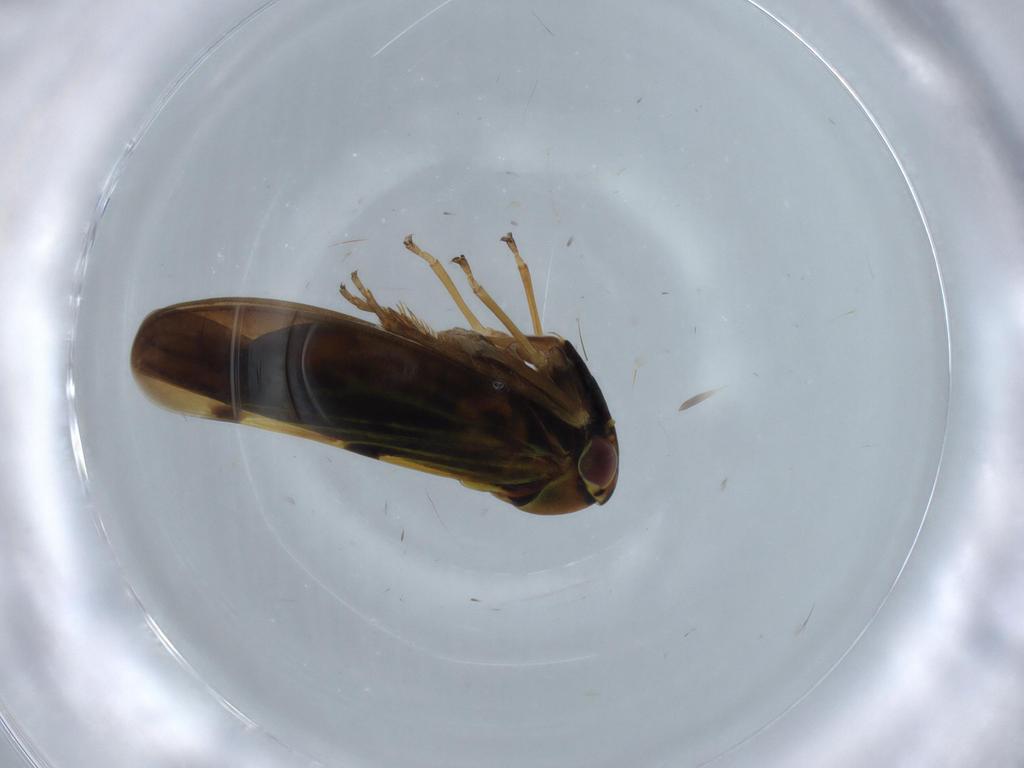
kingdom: Animalia
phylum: Arthropoda
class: Insecta
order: Hemiptera
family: Cicadellidae
